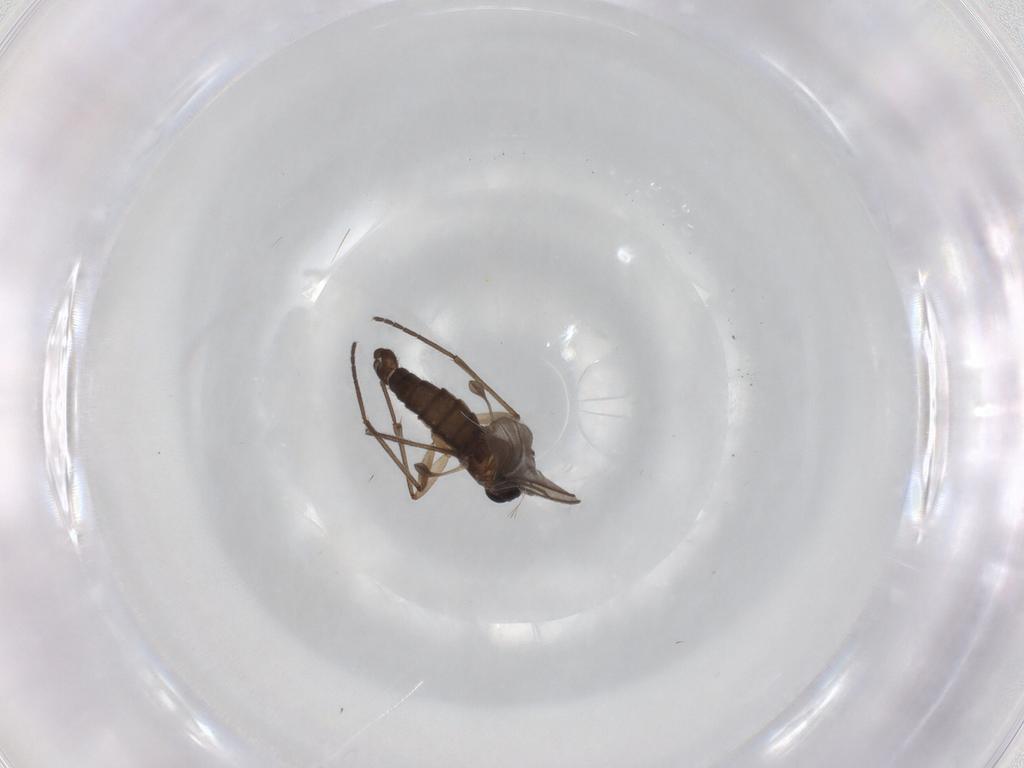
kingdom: Animalia
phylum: Arthropoda
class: Insecta
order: Diptera
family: Sciaridae
